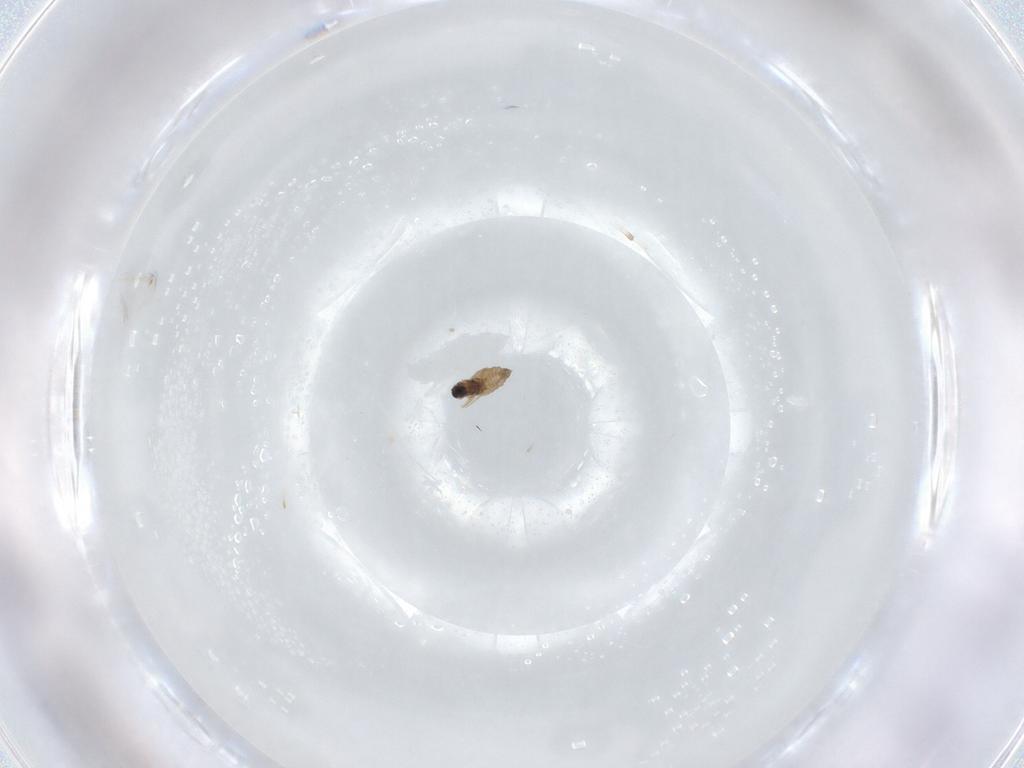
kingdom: Animalia
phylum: Arthropoda
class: Insecta
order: Diptera
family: Cecidomyiidae
